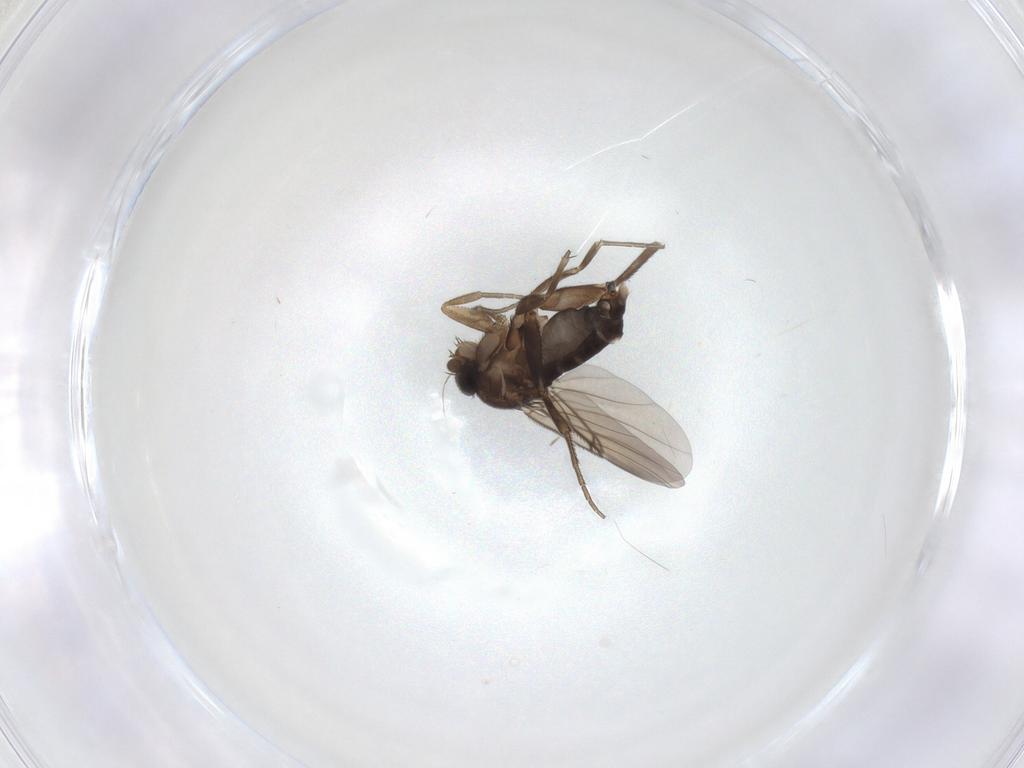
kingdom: Animalia
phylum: Arthropoda
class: Insecta
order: Diptera
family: Phoridae
